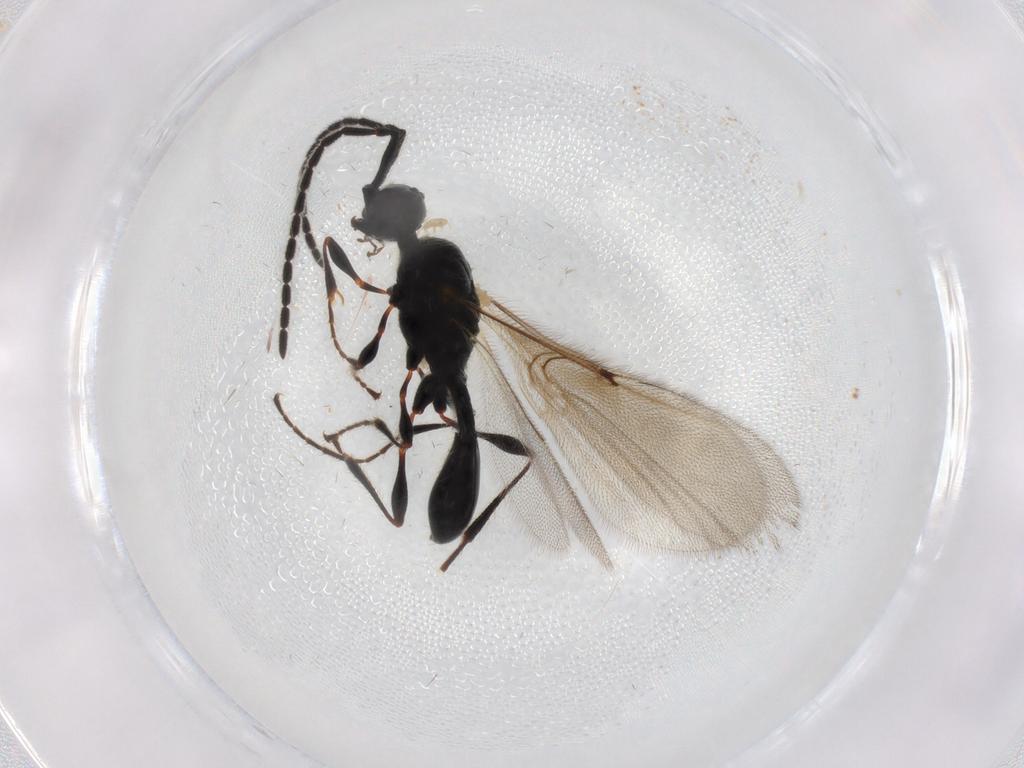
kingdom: Animalia
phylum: Arthropoda
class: Insecta
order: Hymenoptera
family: Diapriidae
